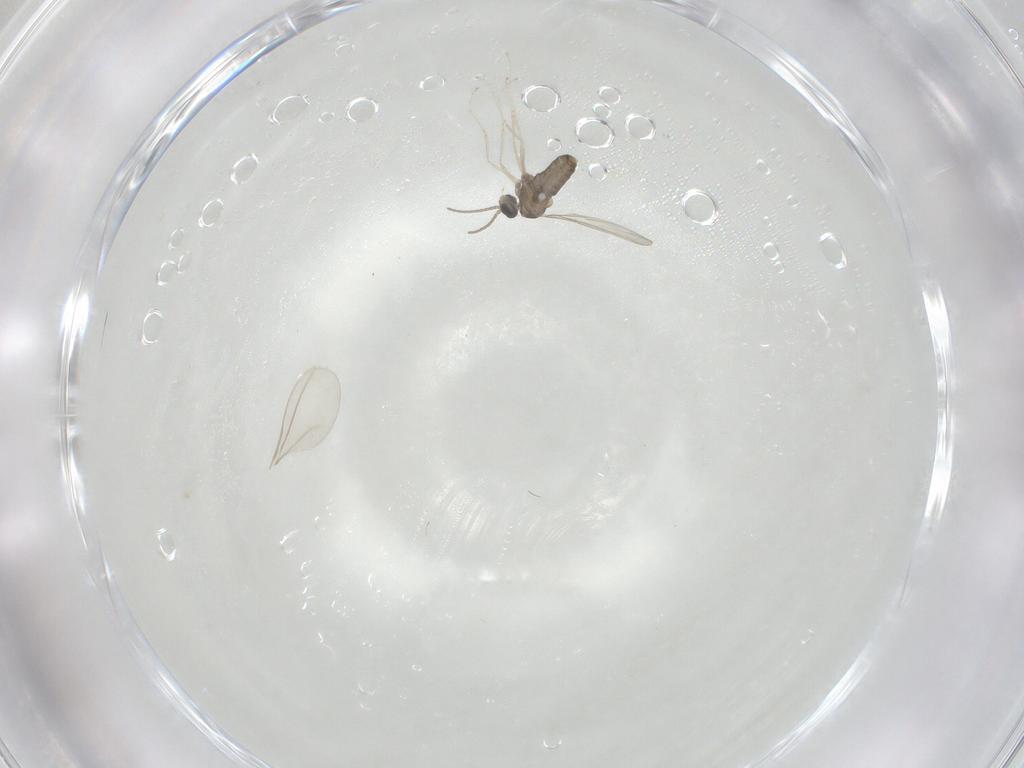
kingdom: Animalia
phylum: Arthropoda
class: Insecta
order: Diptera
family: Cecidomyiidae
